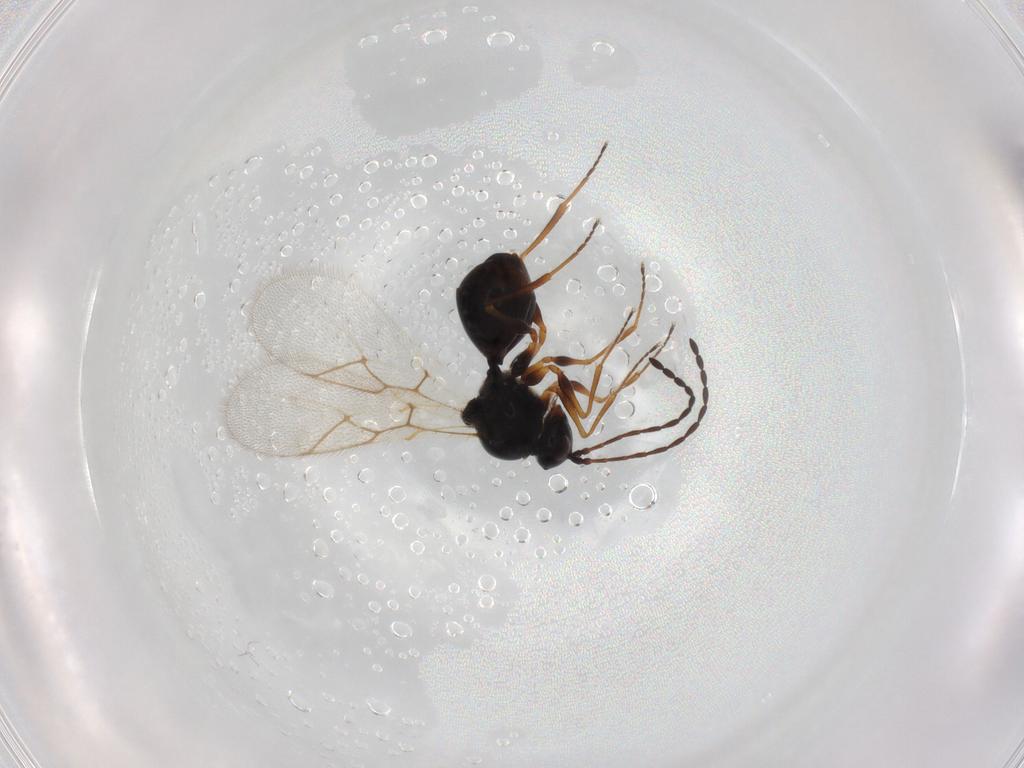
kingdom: Animalia
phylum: Arthropoda
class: Insecta
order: Hymenoptera
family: Figitidae
